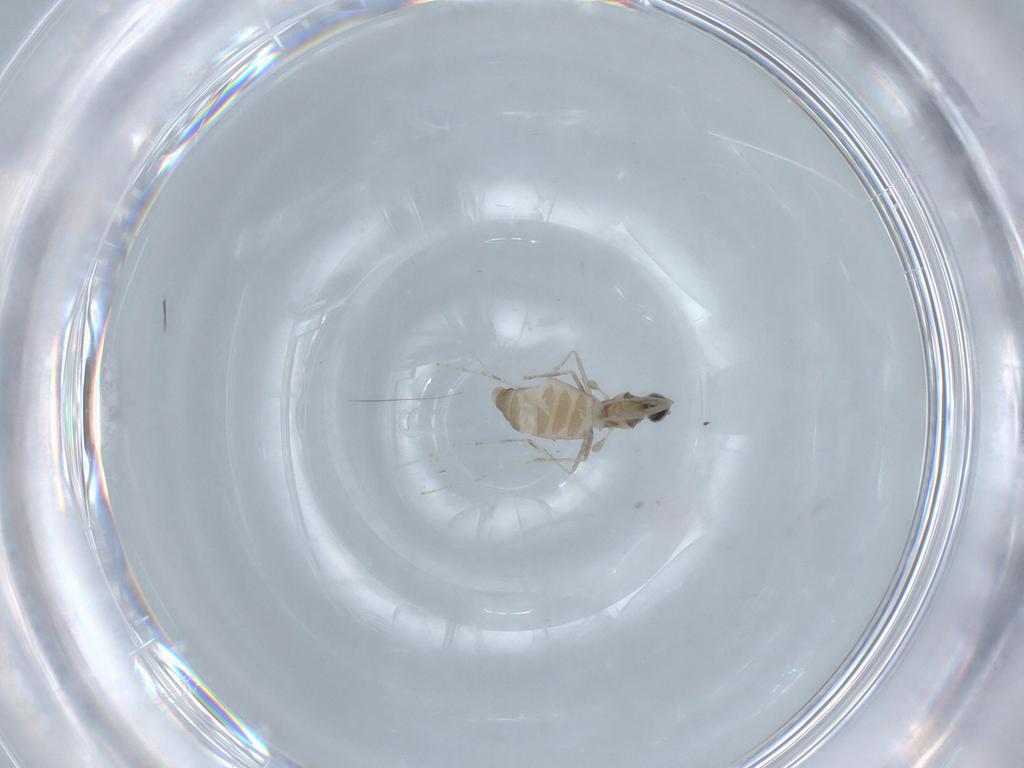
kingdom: Animalia
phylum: Arthropoda
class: Insecta
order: Diptera
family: Cecidomyiidae
